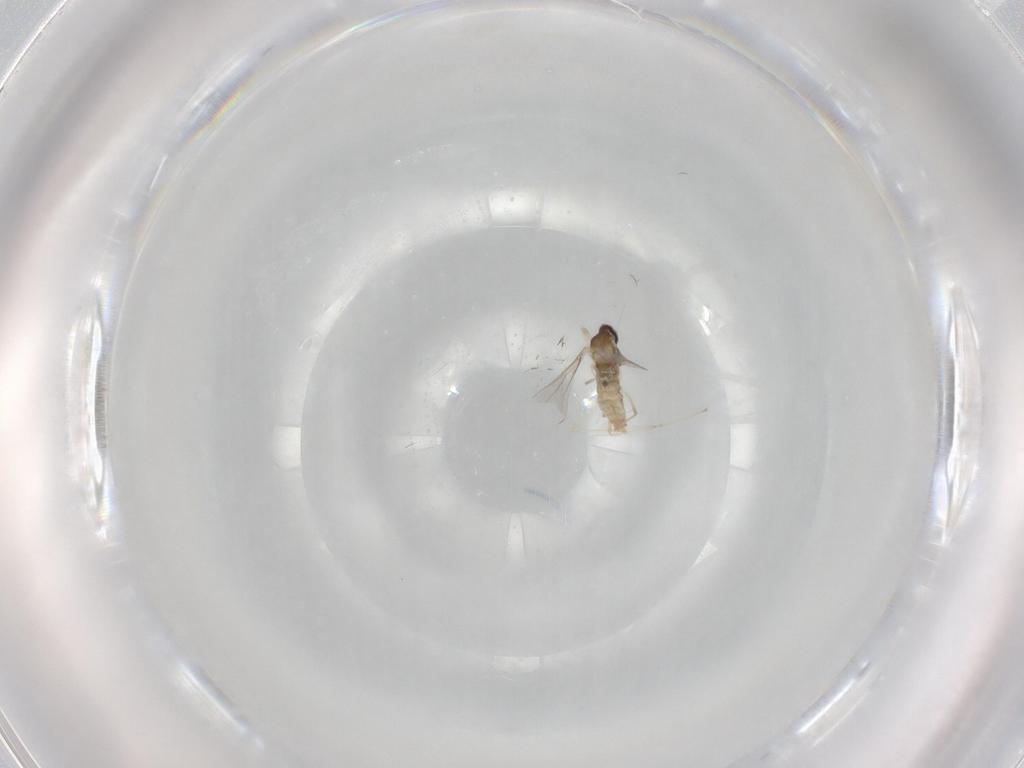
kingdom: Animalia
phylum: Arthropoda
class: Insecta
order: Diptera
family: Cecidomyiidae
